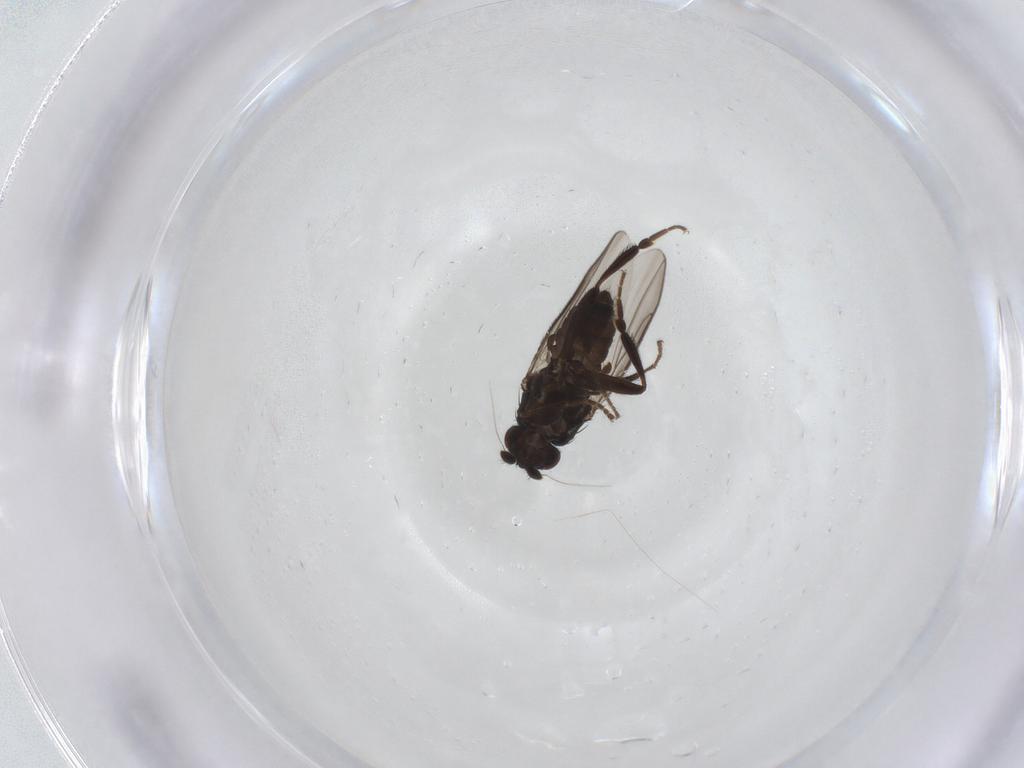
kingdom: Animalia
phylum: Arthropoda
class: Insecta
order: Diptera
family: Sphaeroceridae
